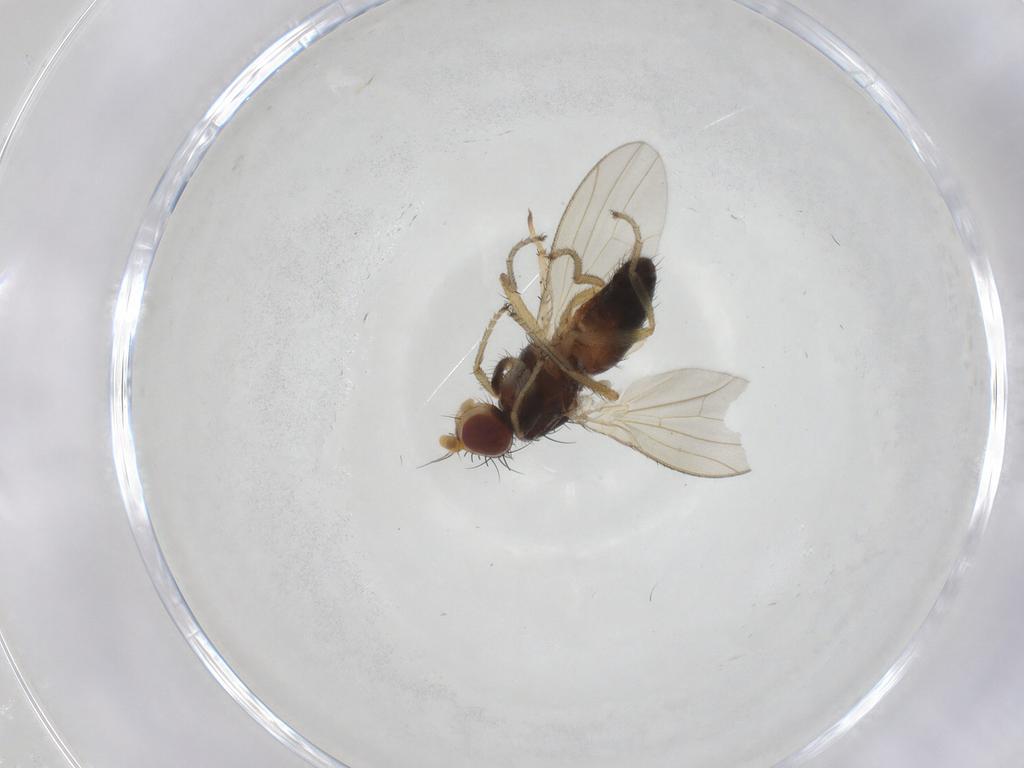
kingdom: Animalia
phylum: Arthropoda
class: Insecta
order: Diptera
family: Heleomyzidae
